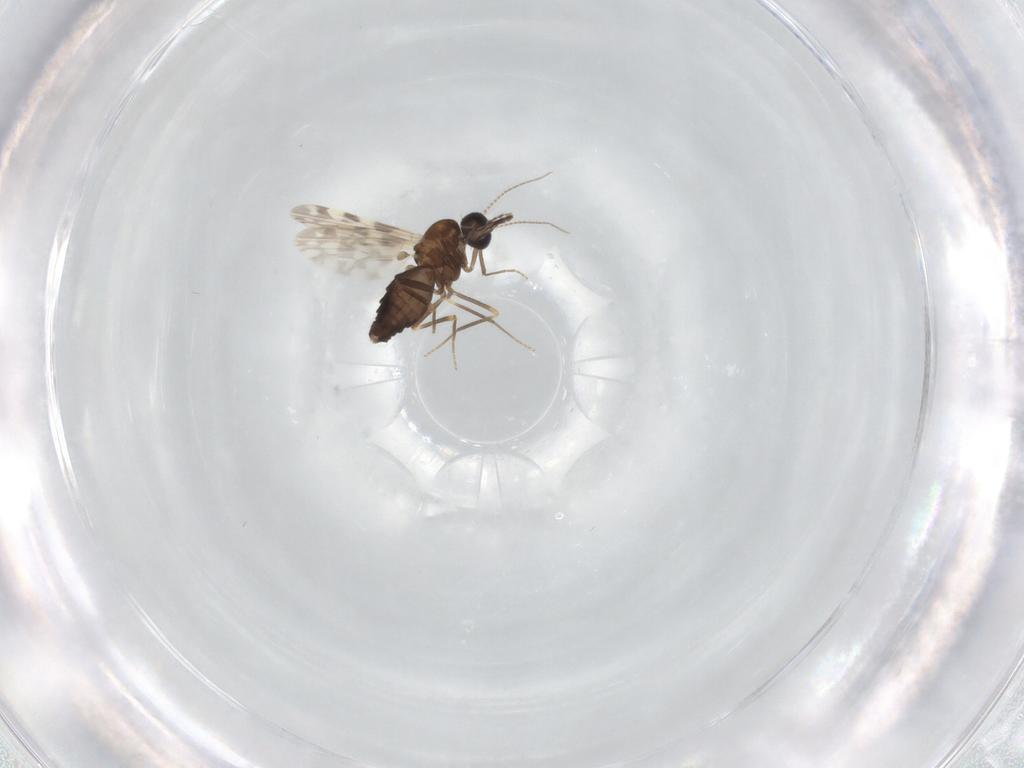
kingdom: Animalia
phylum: Arthropoda
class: Insecta
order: Diptera
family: Ceratopogonidae
